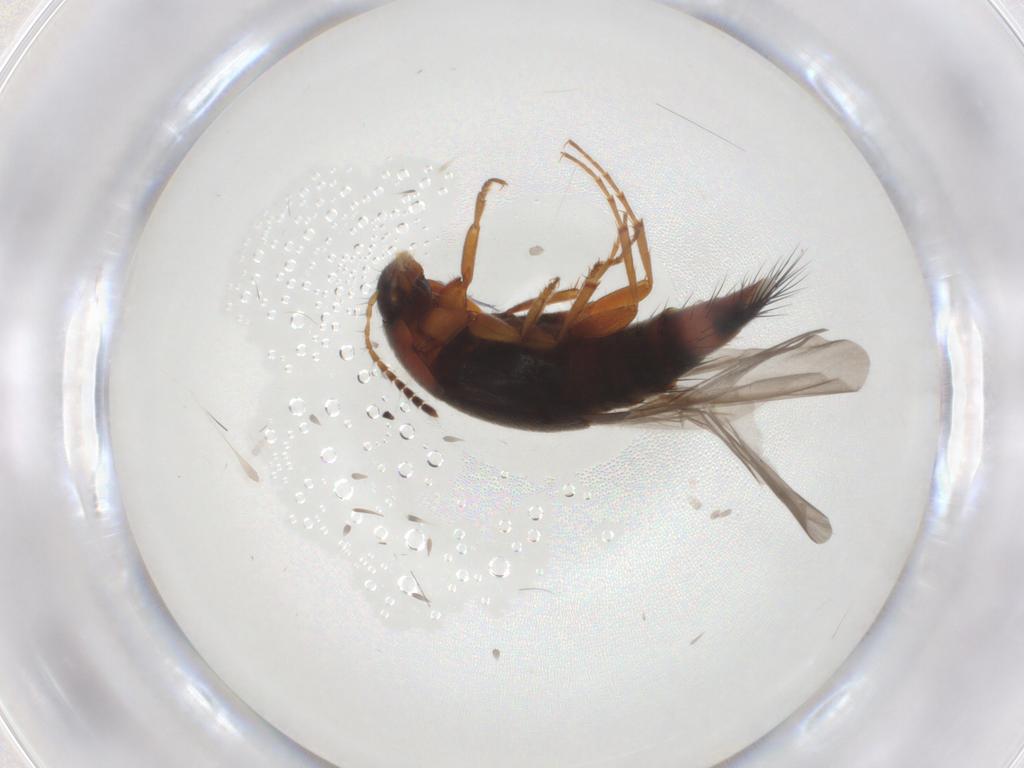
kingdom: Animalia
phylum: Arthropoda
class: Insecta
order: Coleoptera
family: Staphylinidae
